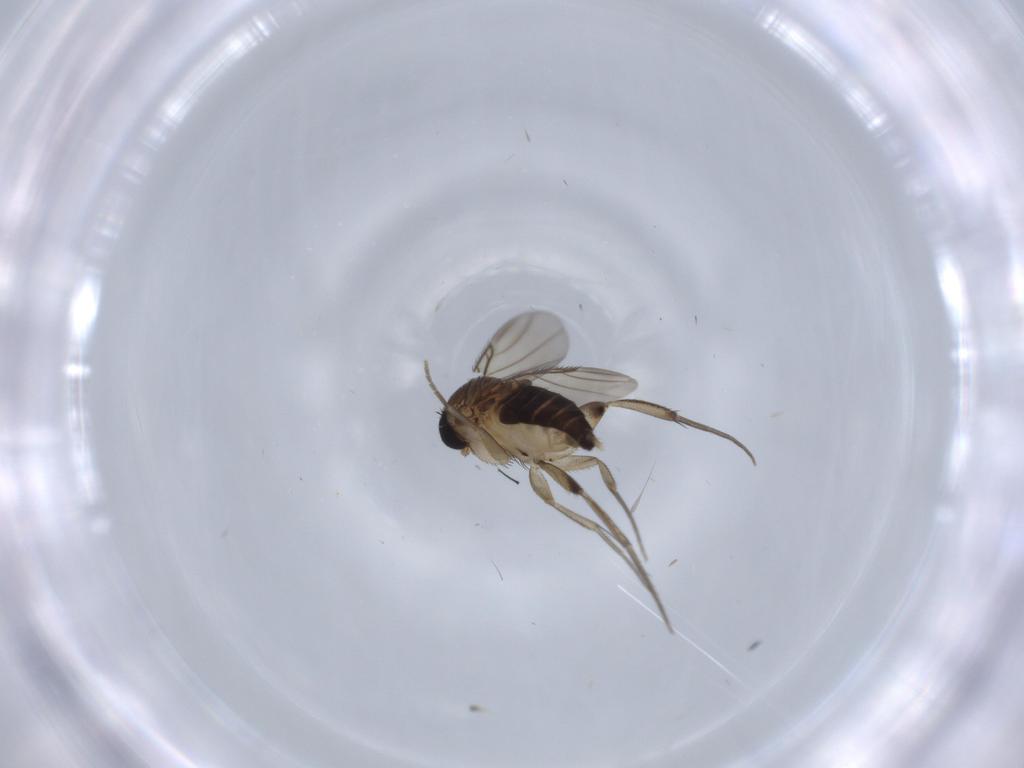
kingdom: Animalia
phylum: Arthropoda
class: Insecta
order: Diptera
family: Phoridae
